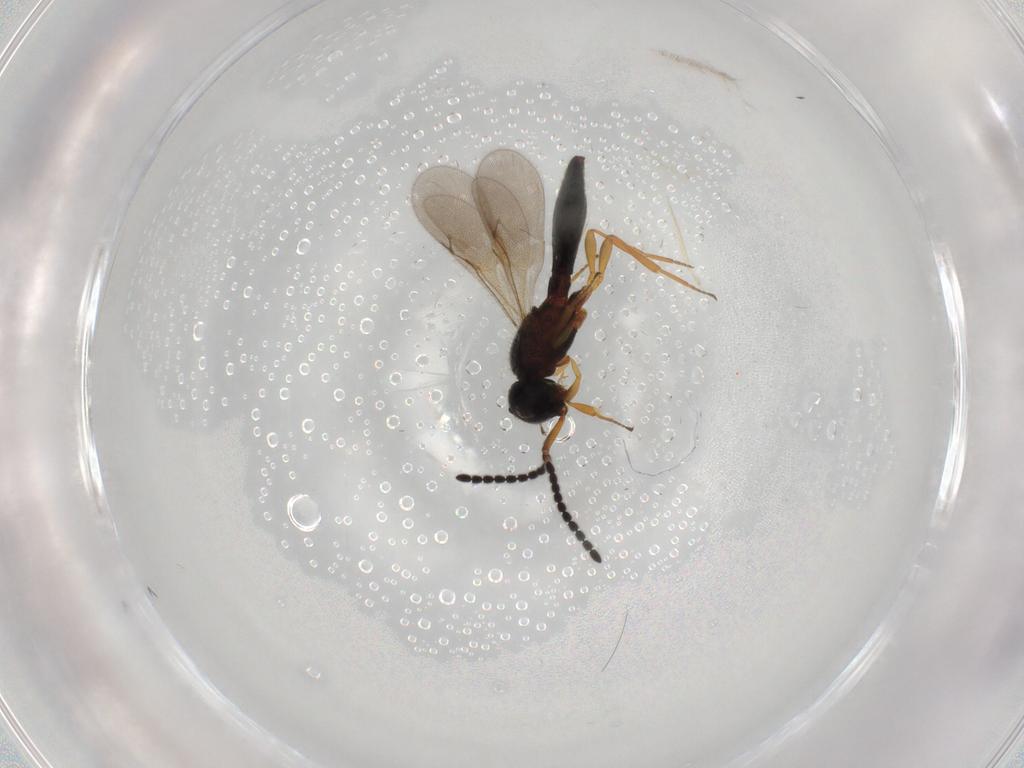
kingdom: Animalia
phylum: Arthropoda
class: Insecta
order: Hymenoptera
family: Scelionidae
